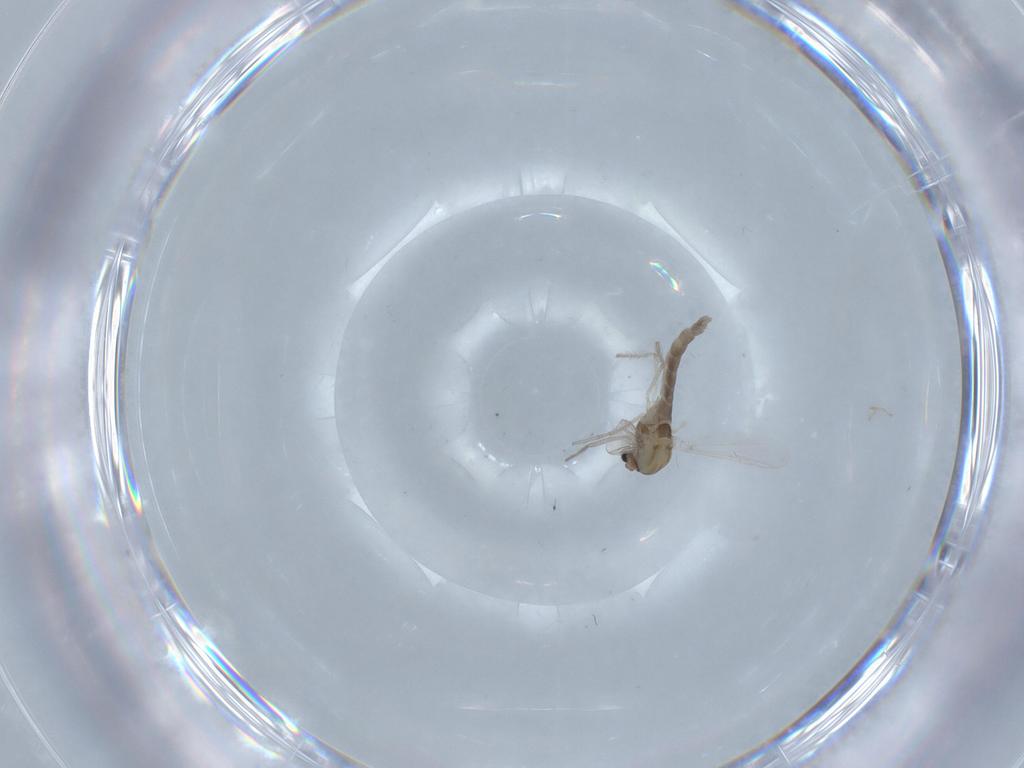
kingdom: Animalia
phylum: Arthropoda
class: Insecta
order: Diptera
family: Chironomidae
